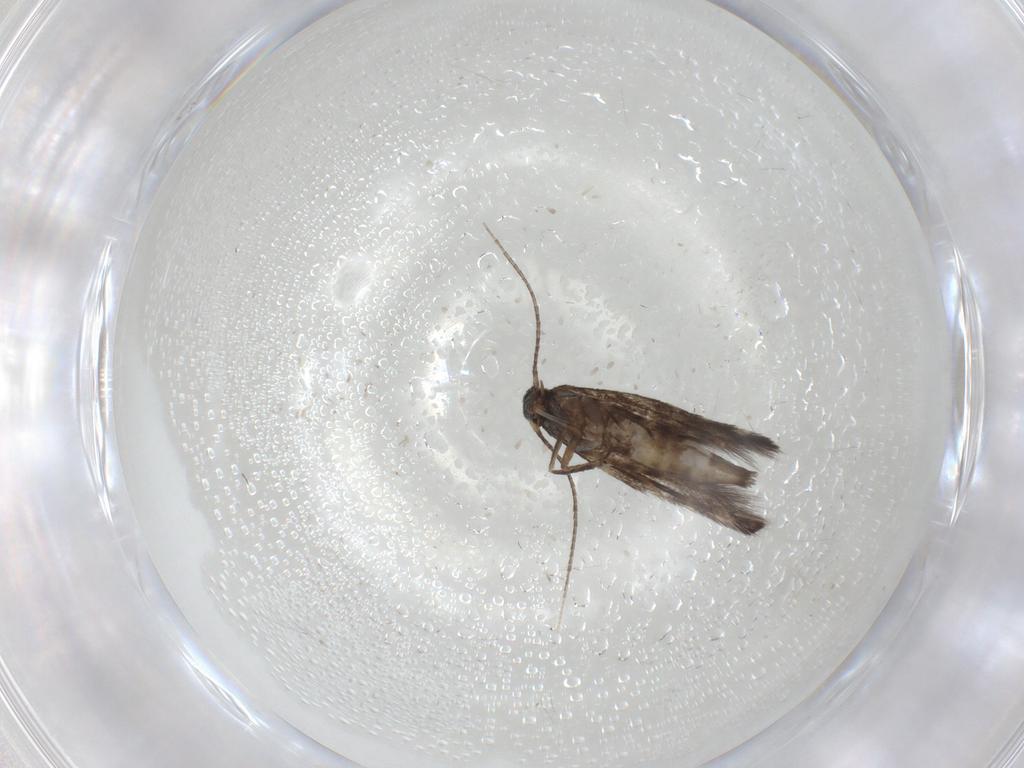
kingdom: Animalia
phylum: Arthropoda
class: Insecta
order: Lepidoptera
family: Gracillariidae
